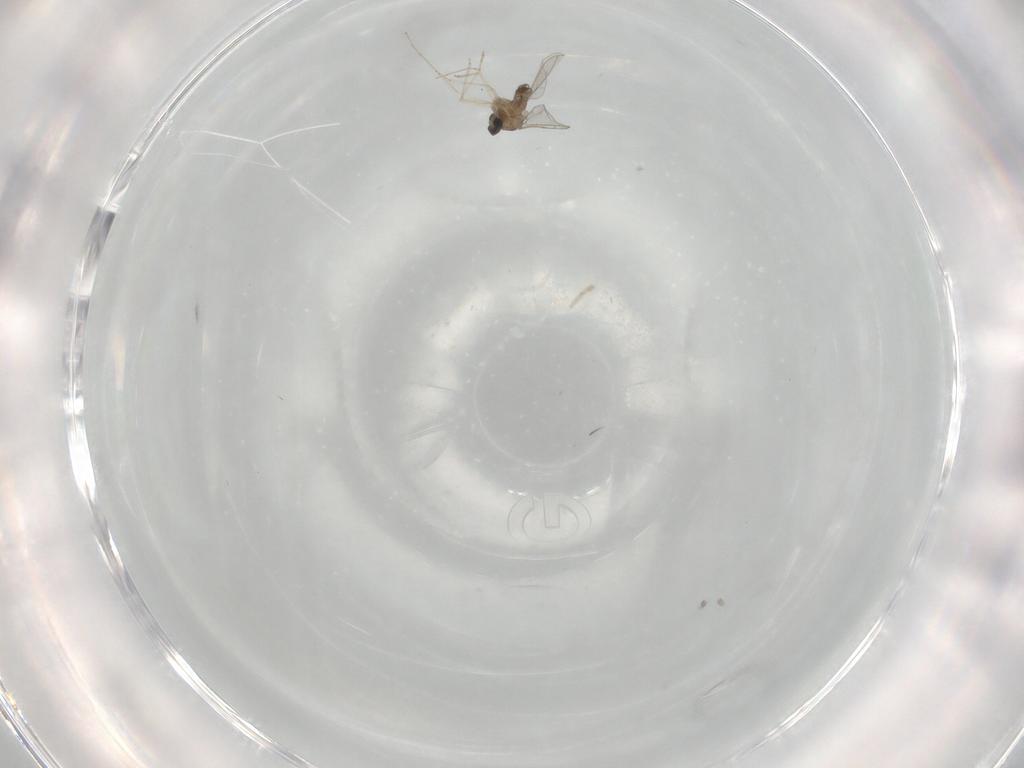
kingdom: Animalia
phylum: Arthropoda
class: Insecta
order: Diptera
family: Cecidomyiidae
